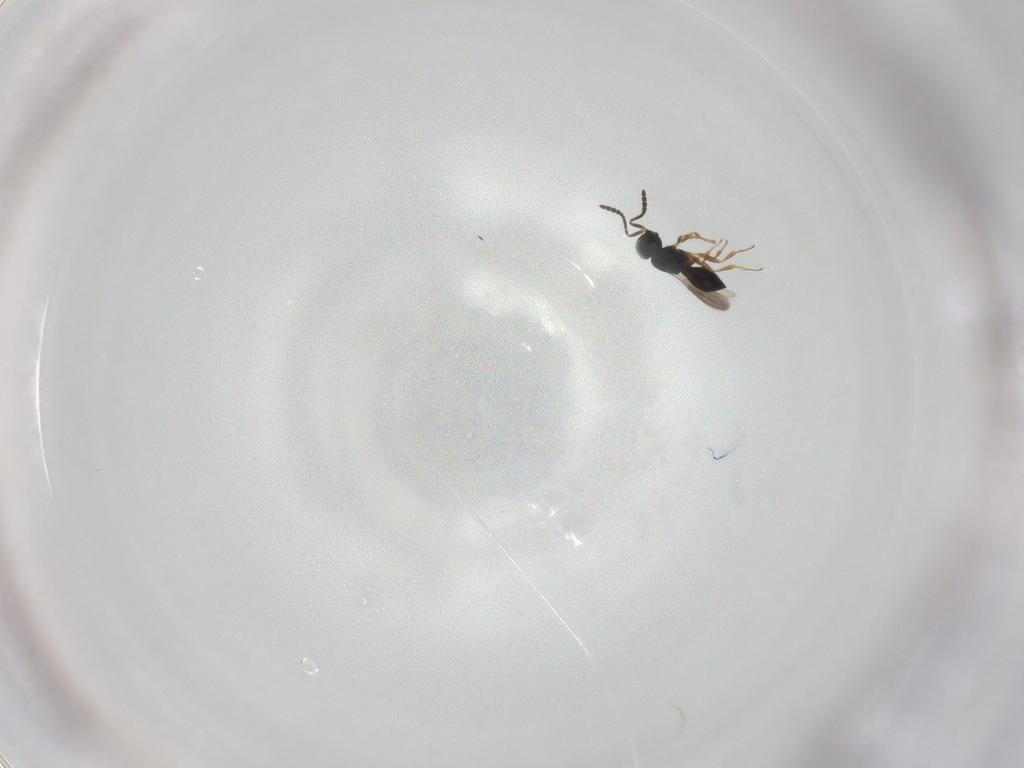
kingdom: Animalia
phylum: Arthropoda
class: Insecta
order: Hymenoptera
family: Scelionidae
